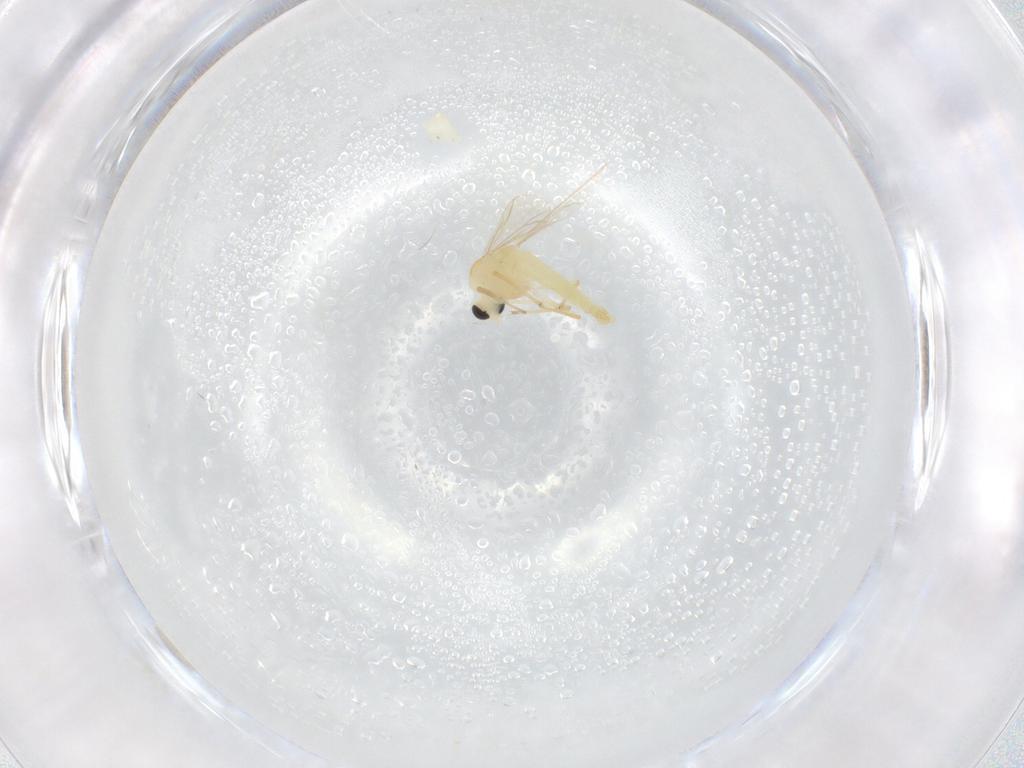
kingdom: Animalia
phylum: Arthropoda
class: Insecta
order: Diptera
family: Chironomidae
